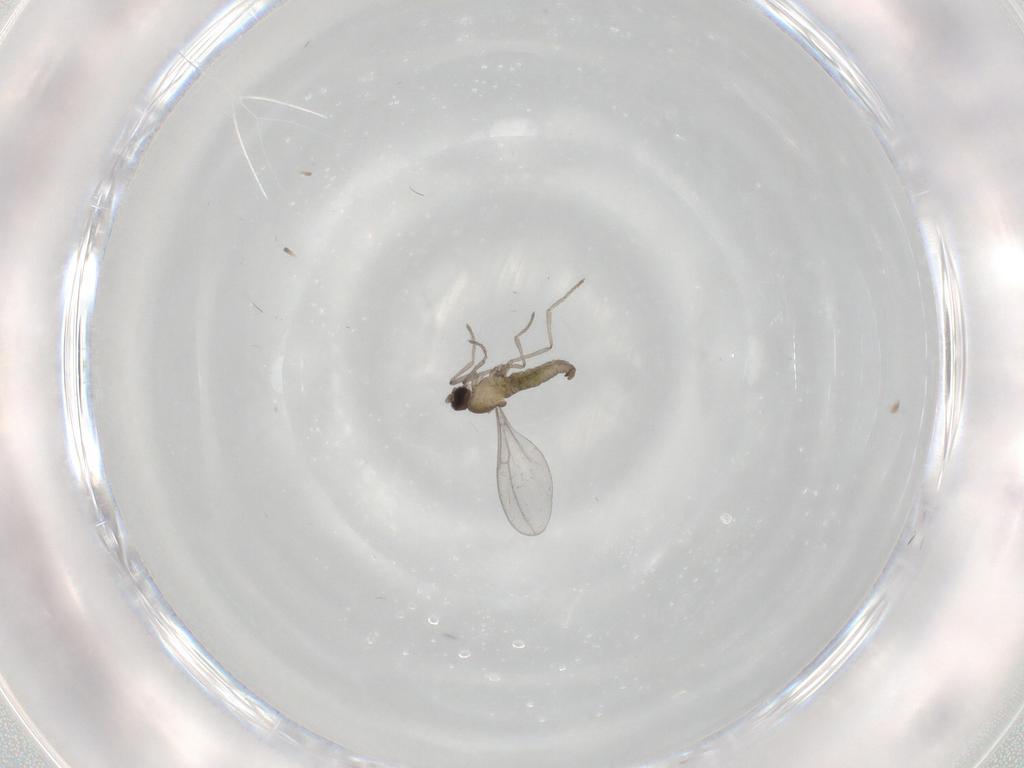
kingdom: Animalia
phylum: Arthropoda
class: Insecta
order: Diptera
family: Cecidomyiidae
